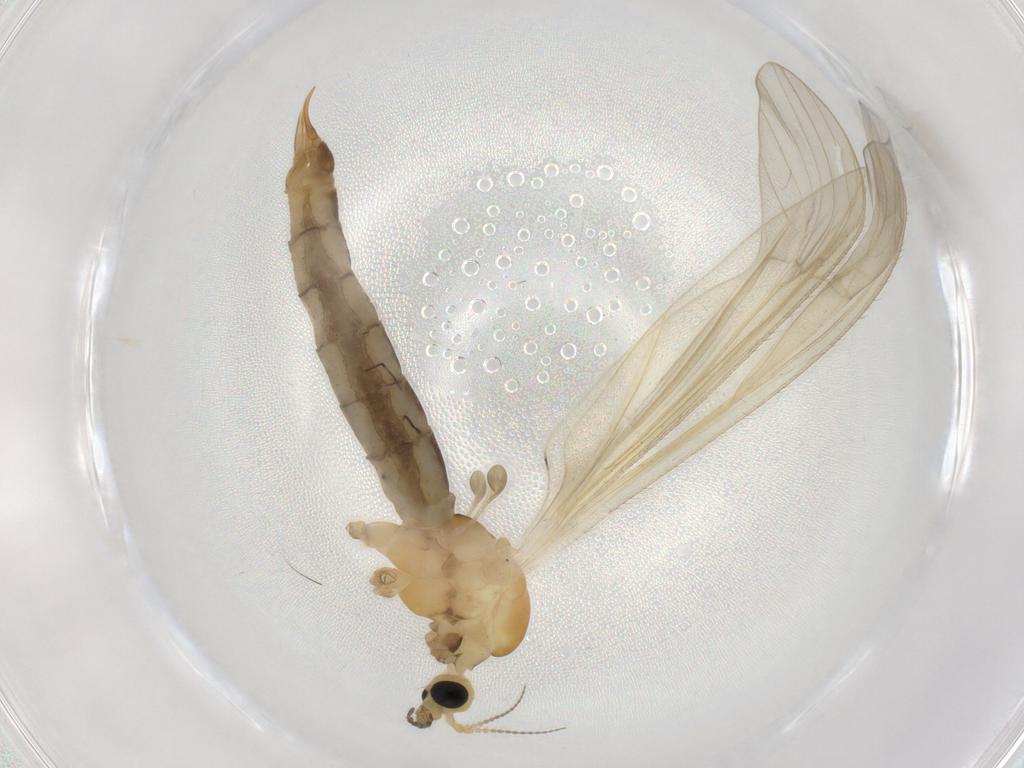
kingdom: Animalia
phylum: Arthropoda
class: Insecta
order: Diptera
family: Limoniidae
